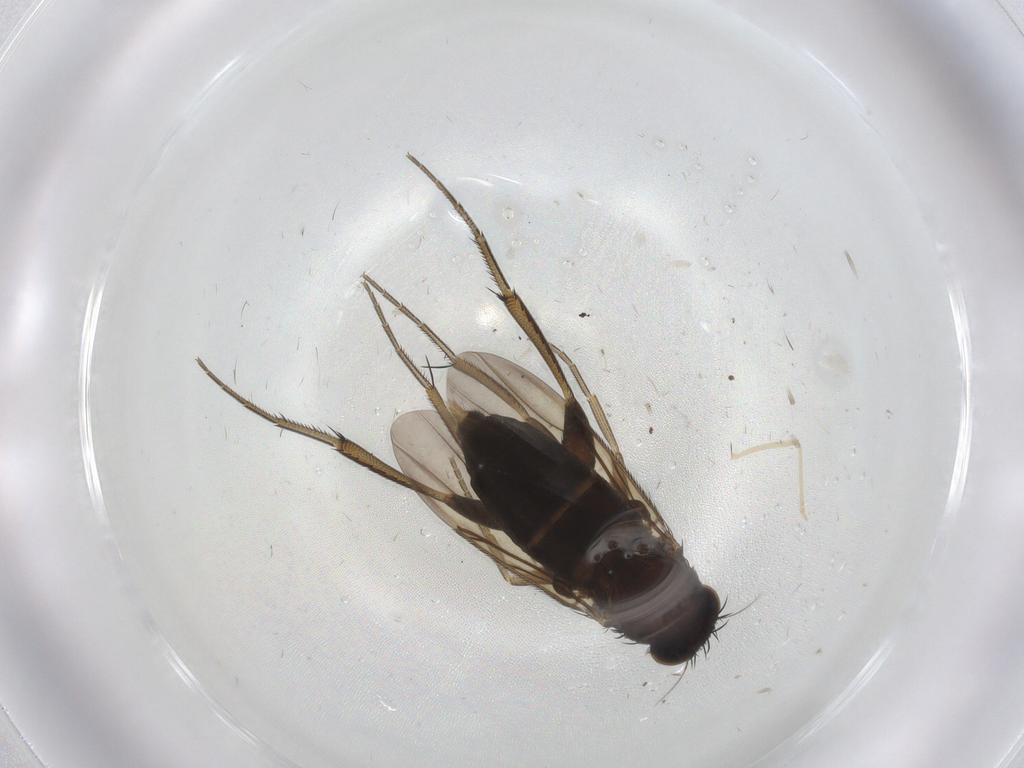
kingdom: Animalia
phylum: Arthropoda
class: Insecta
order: Diptera
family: Phoridae
